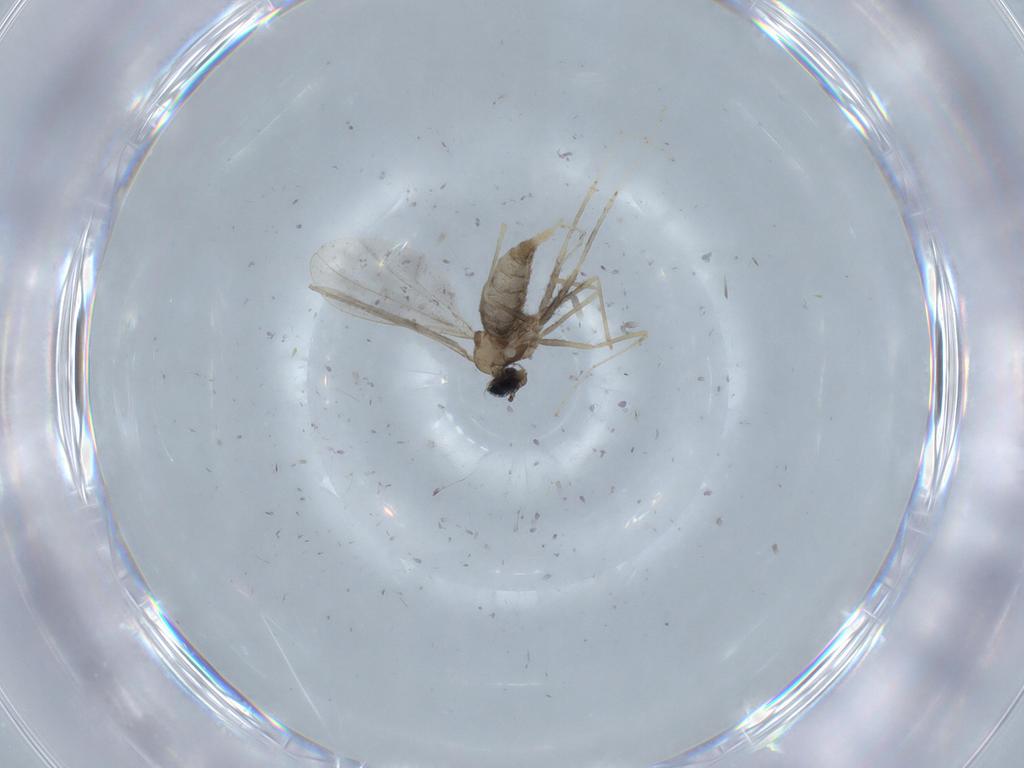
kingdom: Animalia
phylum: Arthropoda
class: Insecta
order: Diptera
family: Cecidomyiidae
